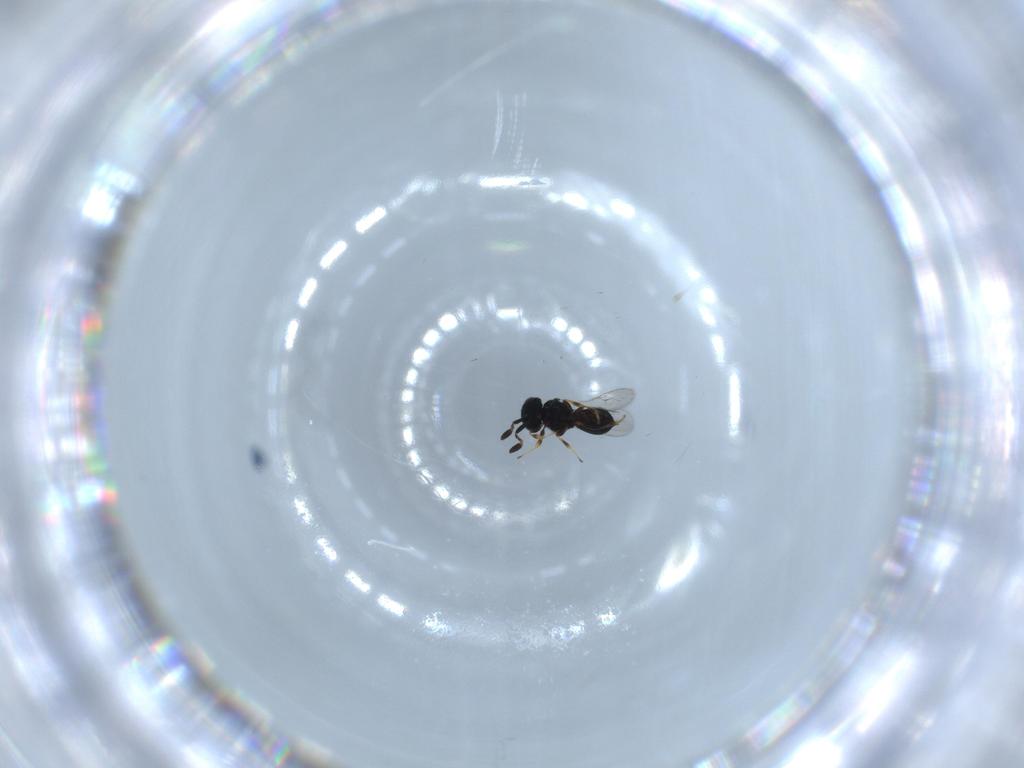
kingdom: Animalia
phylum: Arthropoda
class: Insecta
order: Hymenoptera
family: Scelionidae
